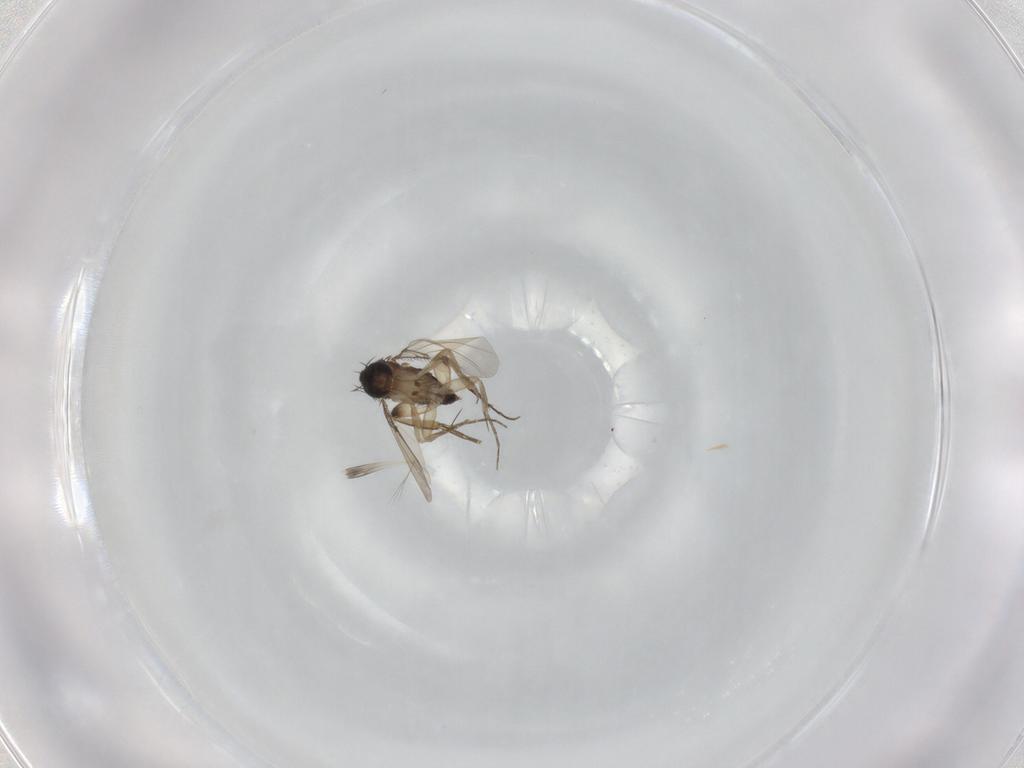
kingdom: Animalia
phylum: Arthropoda
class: Insecta
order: Diptera
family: Phoridae
